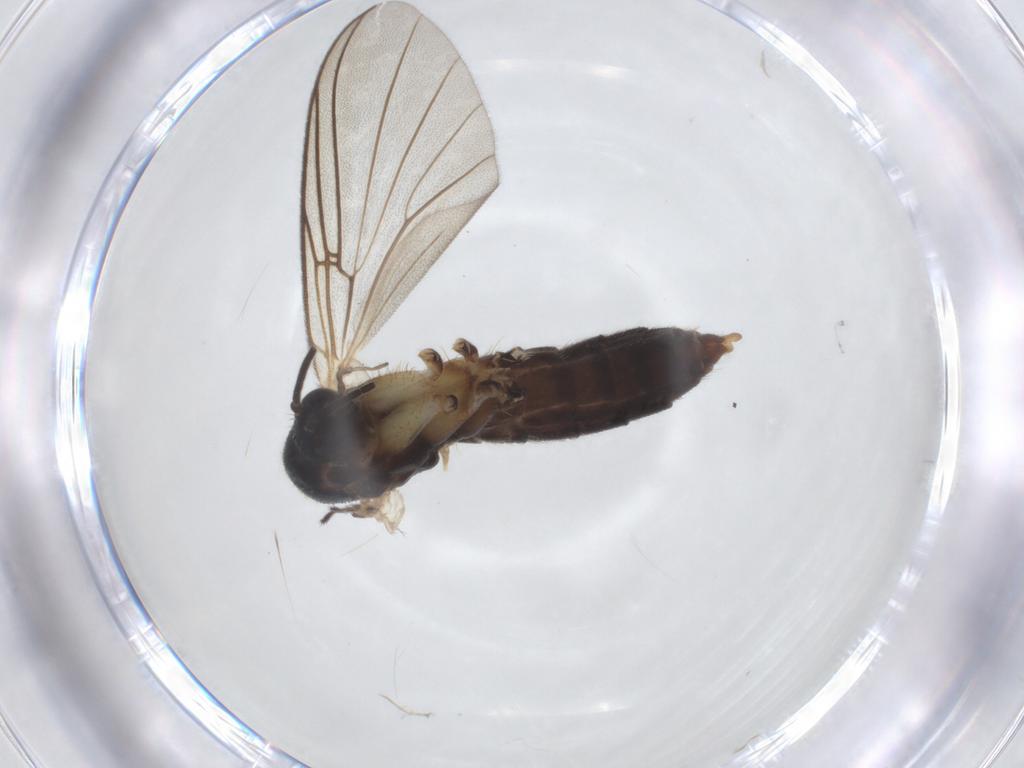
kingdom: Animalia
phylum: Arthropoda
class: Insecta
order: Diptera
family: Mycetophilidae
